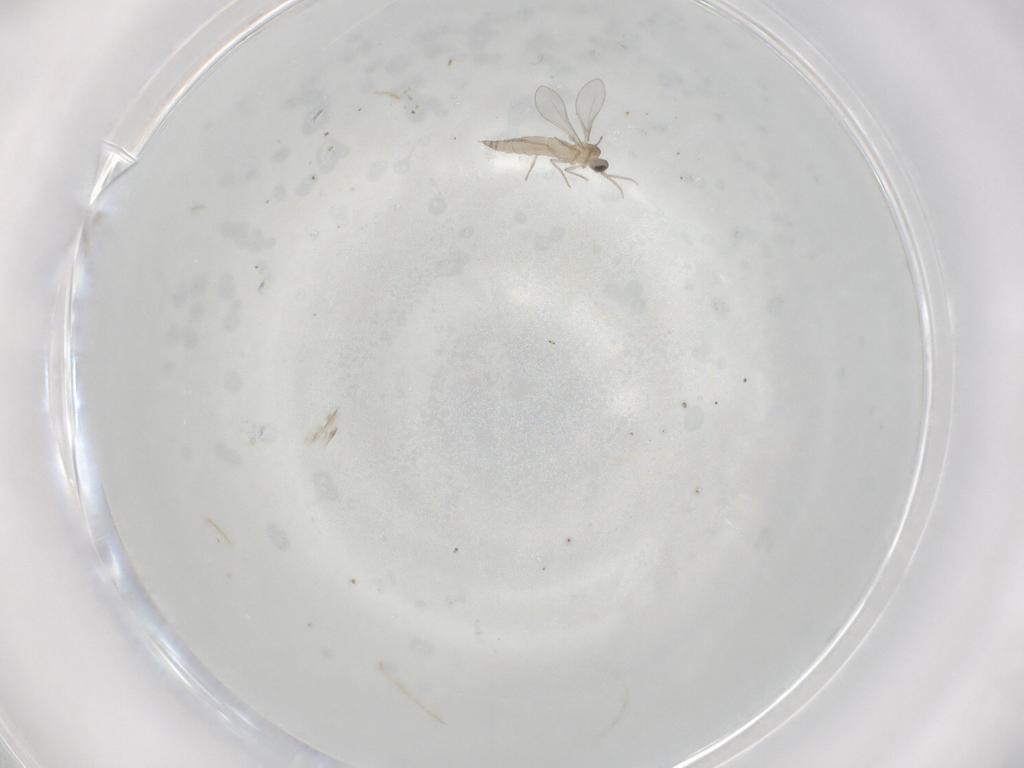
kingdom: Animalia
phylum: Arthropoda
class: Insecta
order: Diptera
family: Cecidomyiidae
